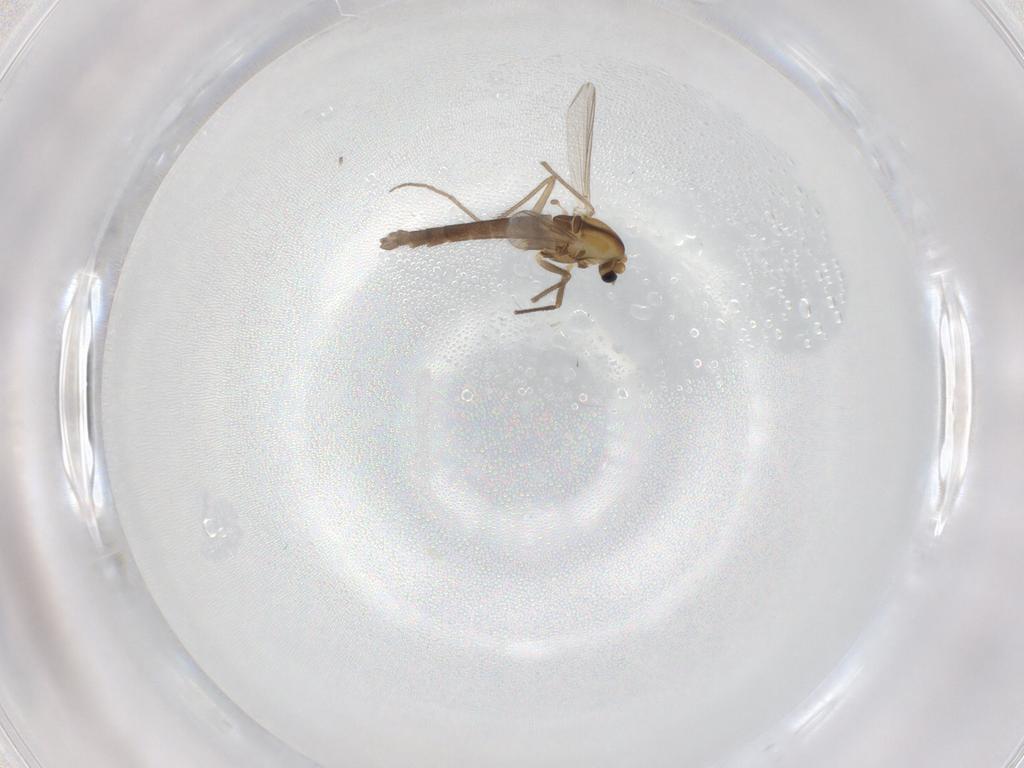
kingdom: Animalia
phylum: Arthropoda
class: Insecta
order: Diptera
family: Chironomidae
